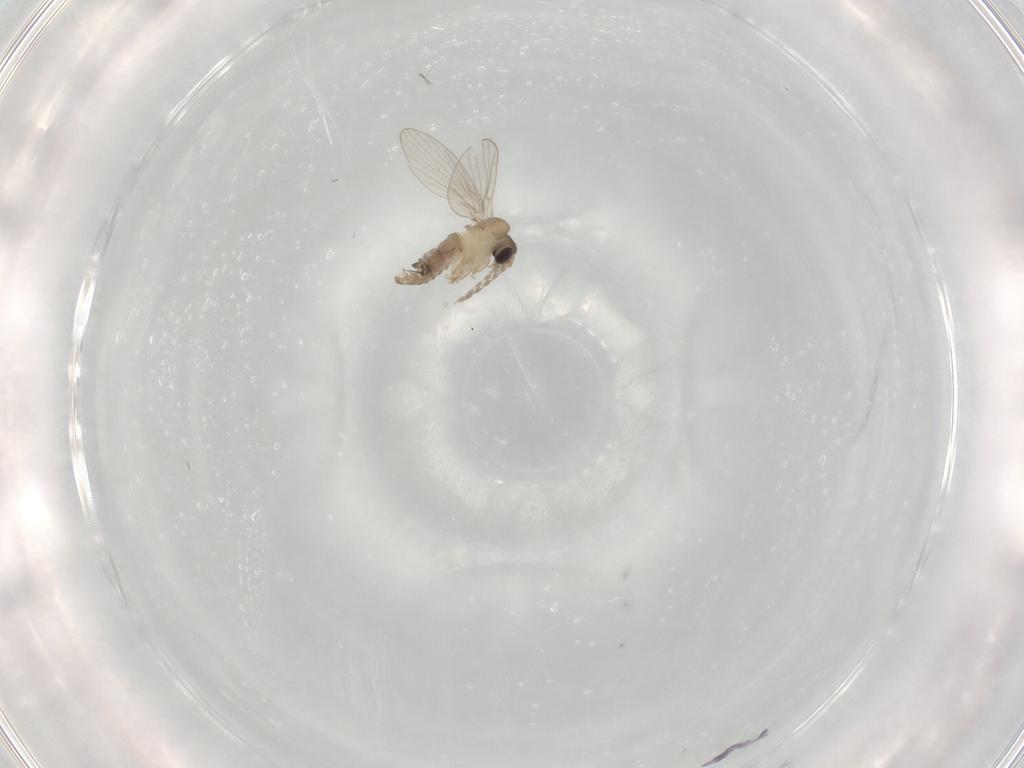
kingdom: Animalia
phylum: Arthropoda
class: Insecta
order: Diptera
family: Psychodidae
